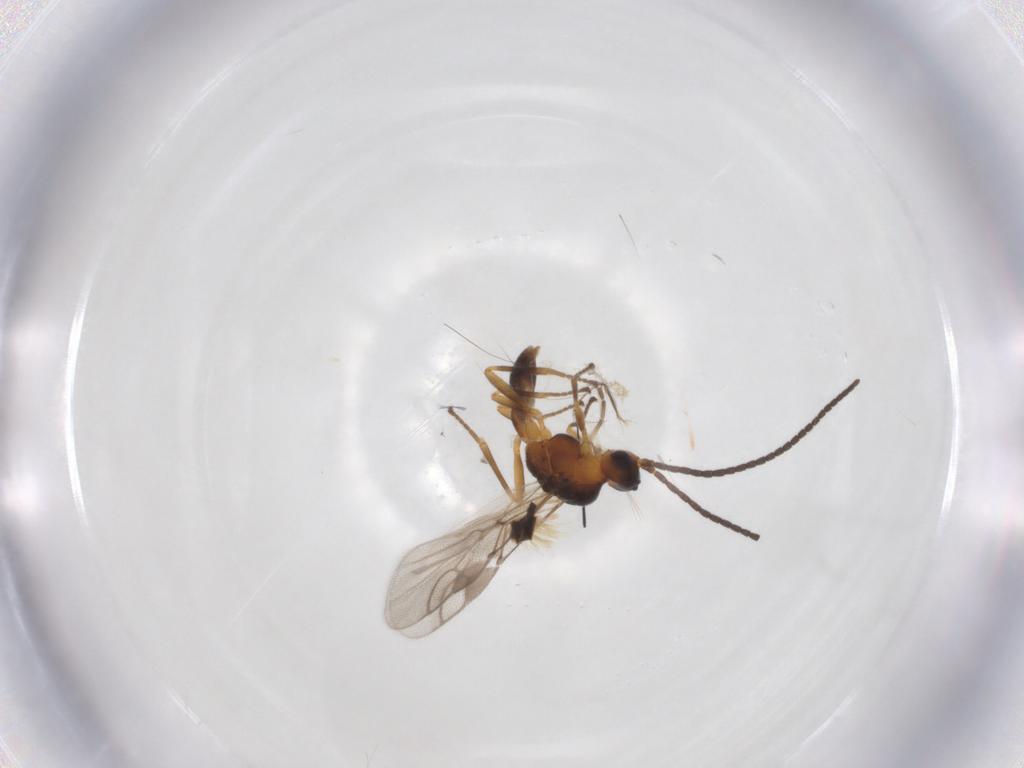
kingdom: Animalia
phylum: Arthropoda
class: Insecta
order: Hymenoptera
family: Braconidae
